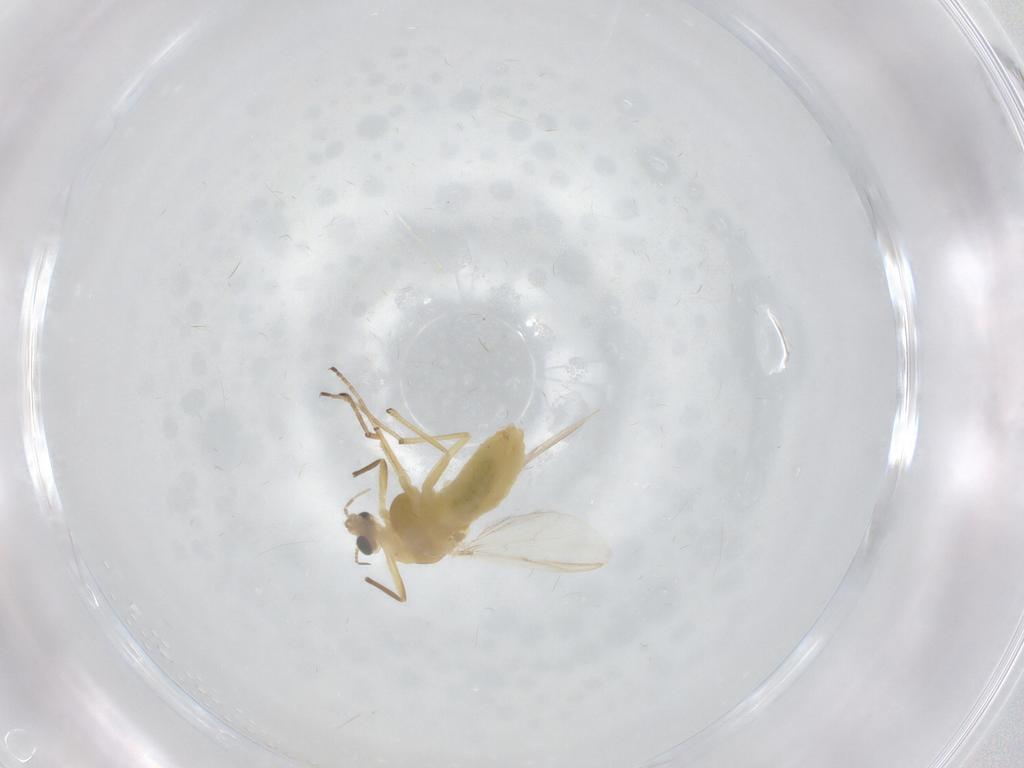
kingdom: Animalia
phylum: Arthropoda
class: Insecta
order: Diptera
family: Chironomidae
